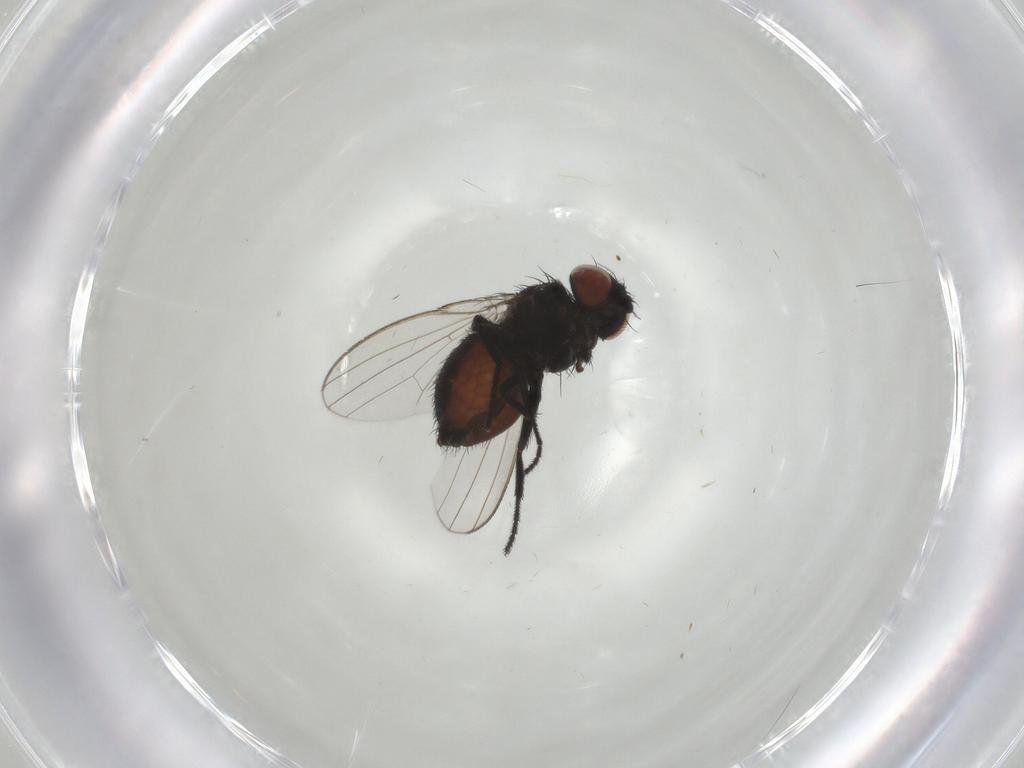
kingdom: Animalia
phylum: Arthropoda
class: Insecta
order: Diptera
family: Milichiidae
